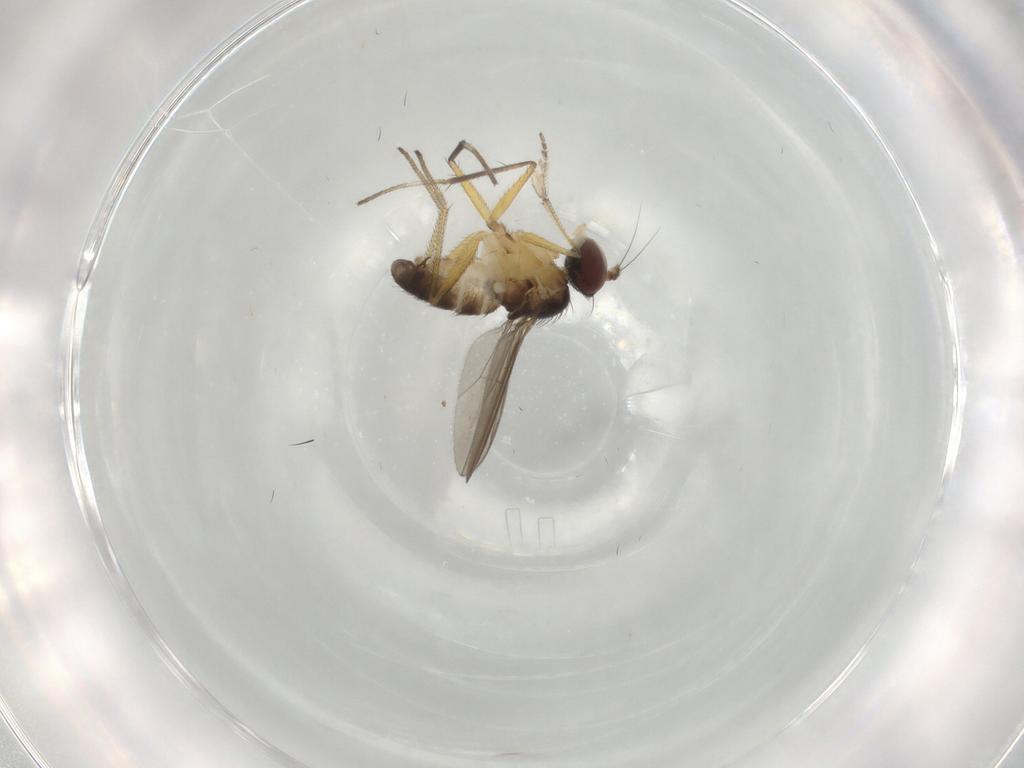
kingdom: Animalia
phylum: Arthropoda
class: Insecta
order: Diptera
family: Dolichopodidae
